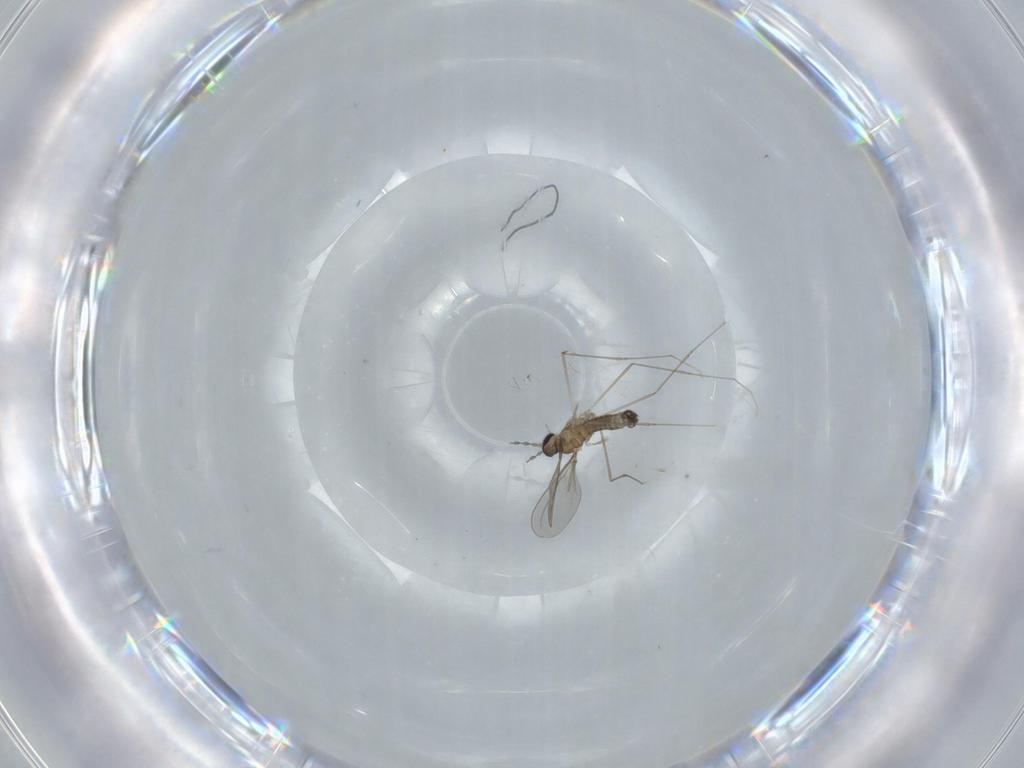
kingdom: Animalia
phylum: Arthropoda
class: Insecta
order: Diptera
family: Cecidomyiidae
